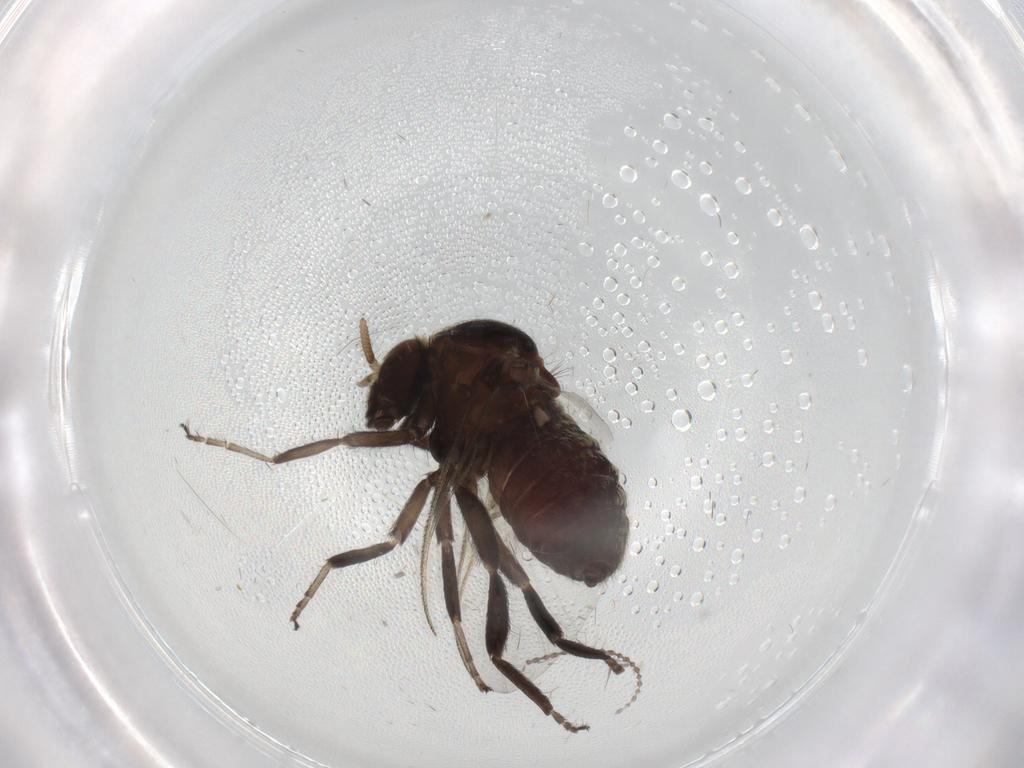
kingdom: Animalia
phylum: Arthropoda
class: Insecta
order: Diptera
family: Simuliidae
